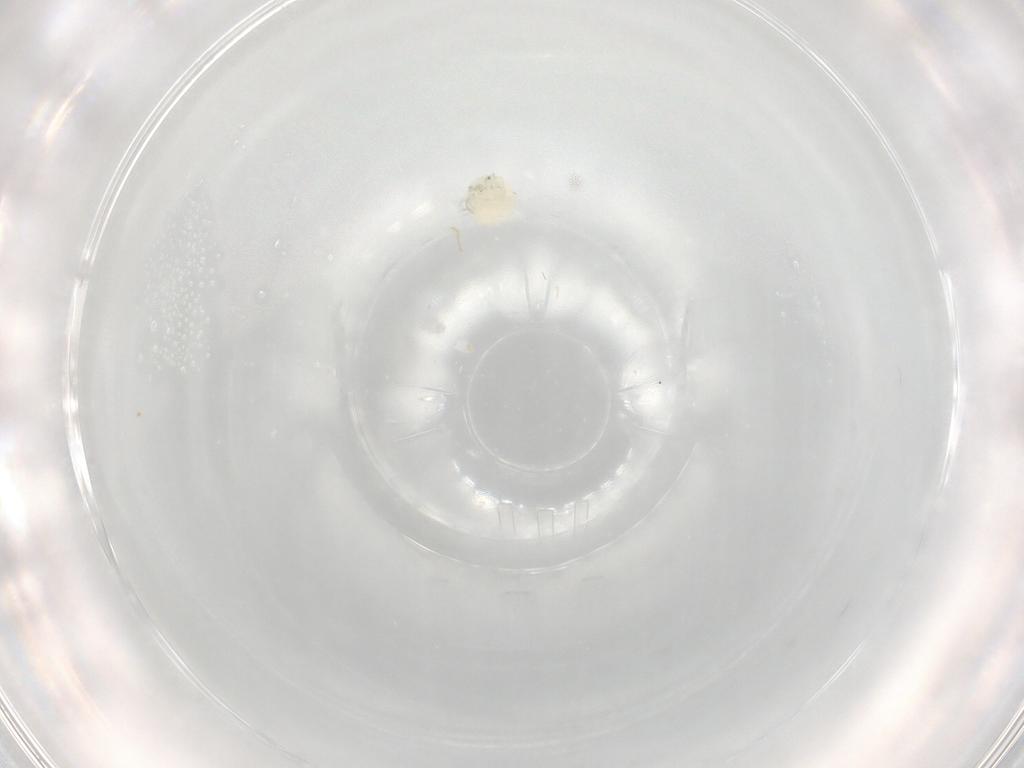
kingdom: Animalia
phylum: Arthropoda
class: Arachnida
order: Trombidiformes
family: Arrenuridae
